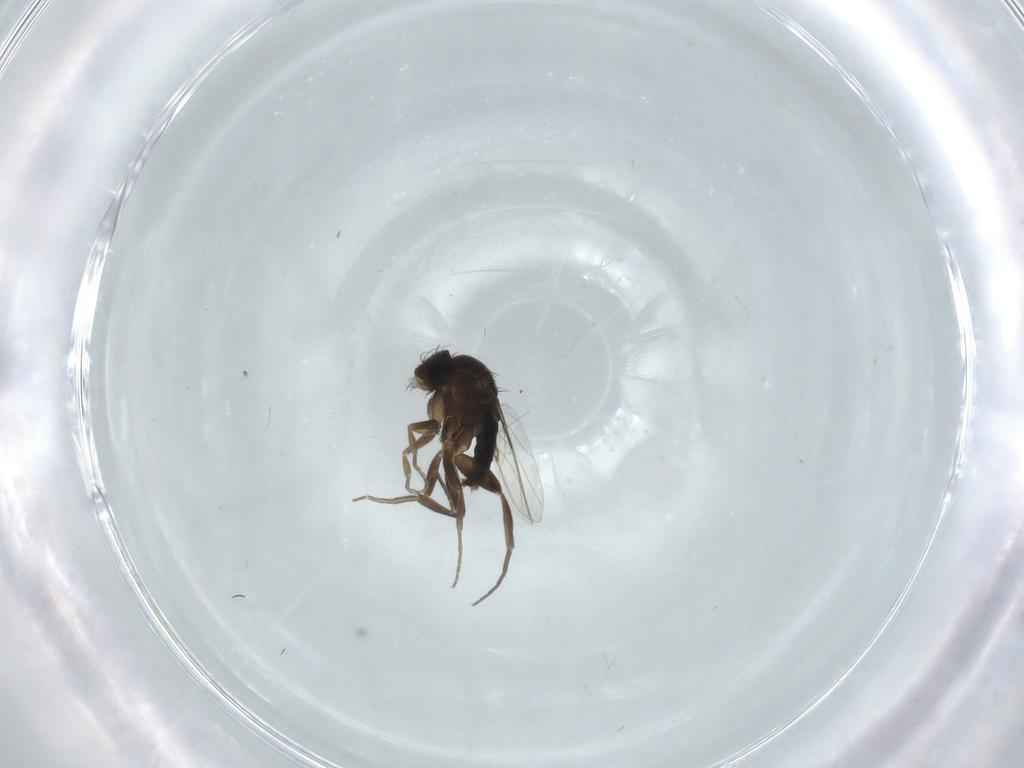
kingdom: Animalia
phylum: Arthropoda
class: Insecta
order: Diptera
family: Phoridae
